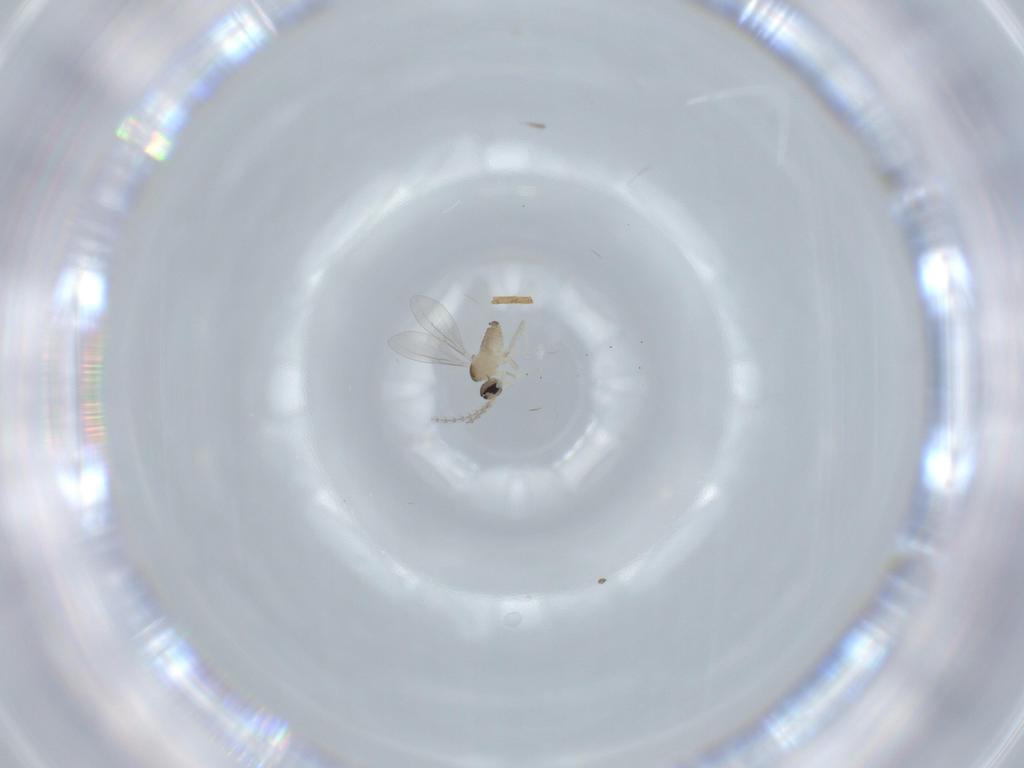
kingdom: Animalia
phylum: Arthropoda
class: Insecta
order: Diptera
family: Cecidomyiidae
